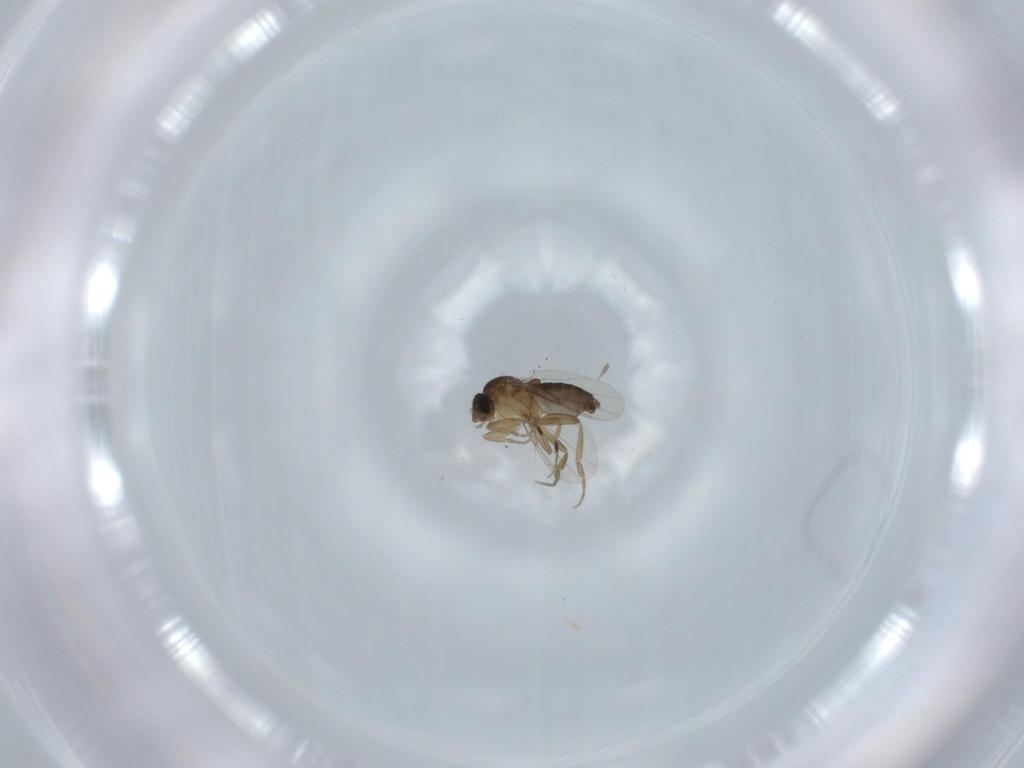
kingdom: Animalia
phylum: Arthropoda
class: Insecta
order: Diptera
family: Phoridae
